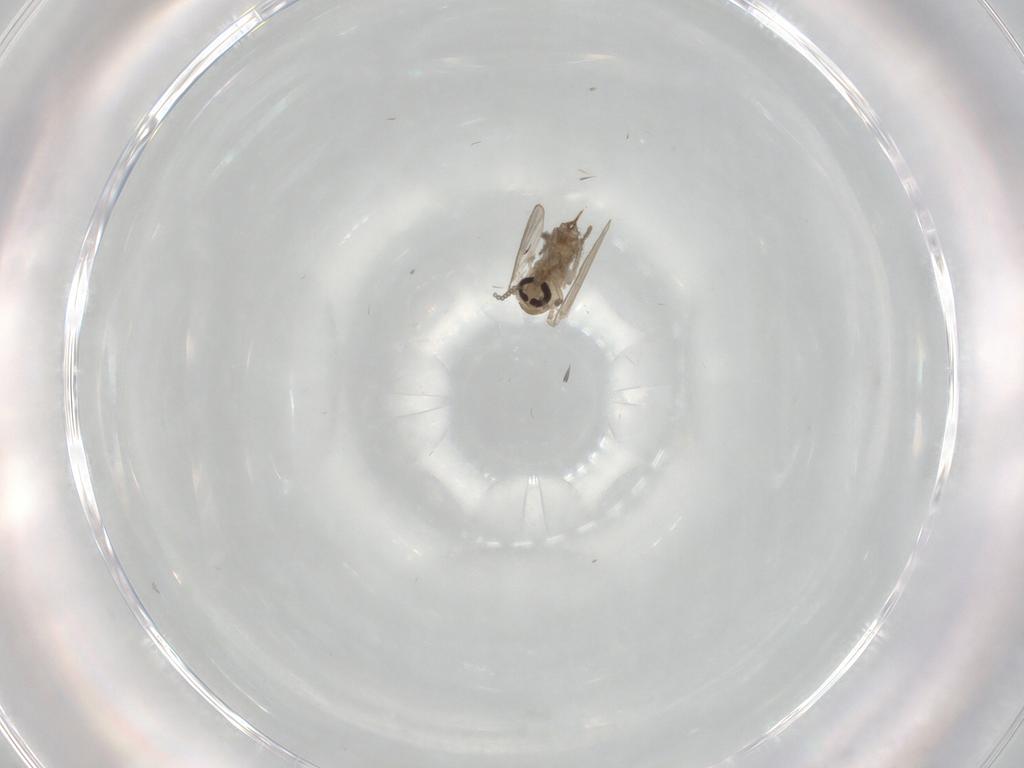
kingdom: Animalia
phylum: Arthropoda
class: Insecta
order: Diptera
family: Psychodidae
